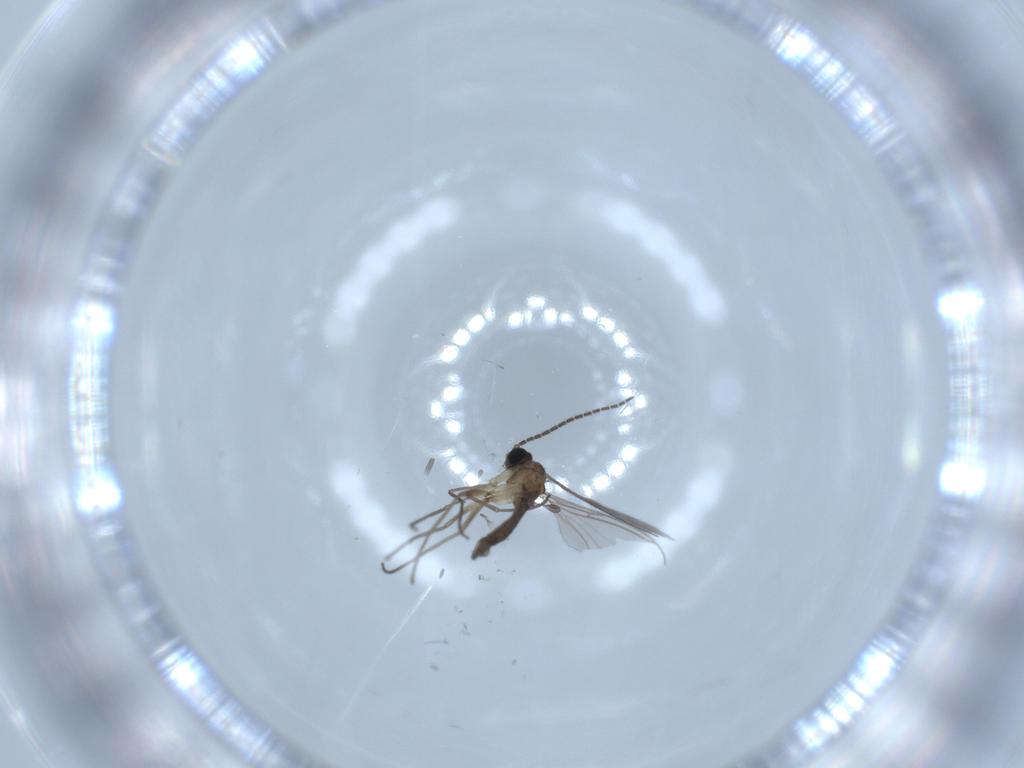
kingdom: Animalia
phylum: Arthropoda
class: Insecta
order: Diptera
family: Sciaridae
